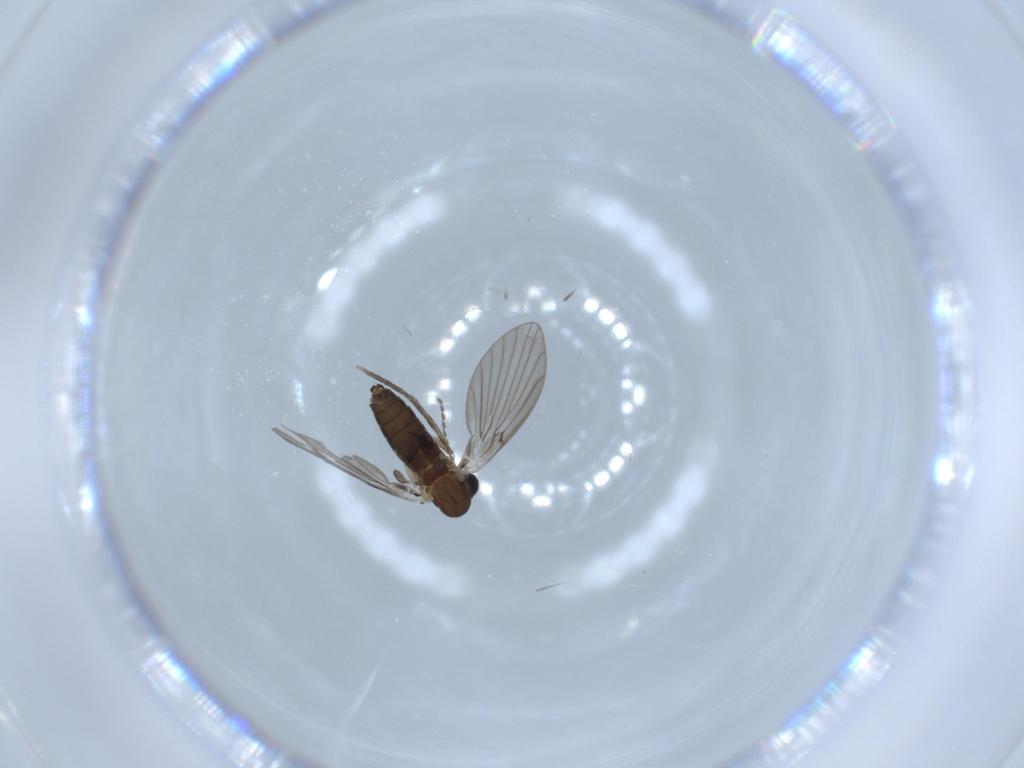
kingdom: Animalia
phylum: Arthropoda
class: Insecta
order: Diptera
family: Psychodidae
